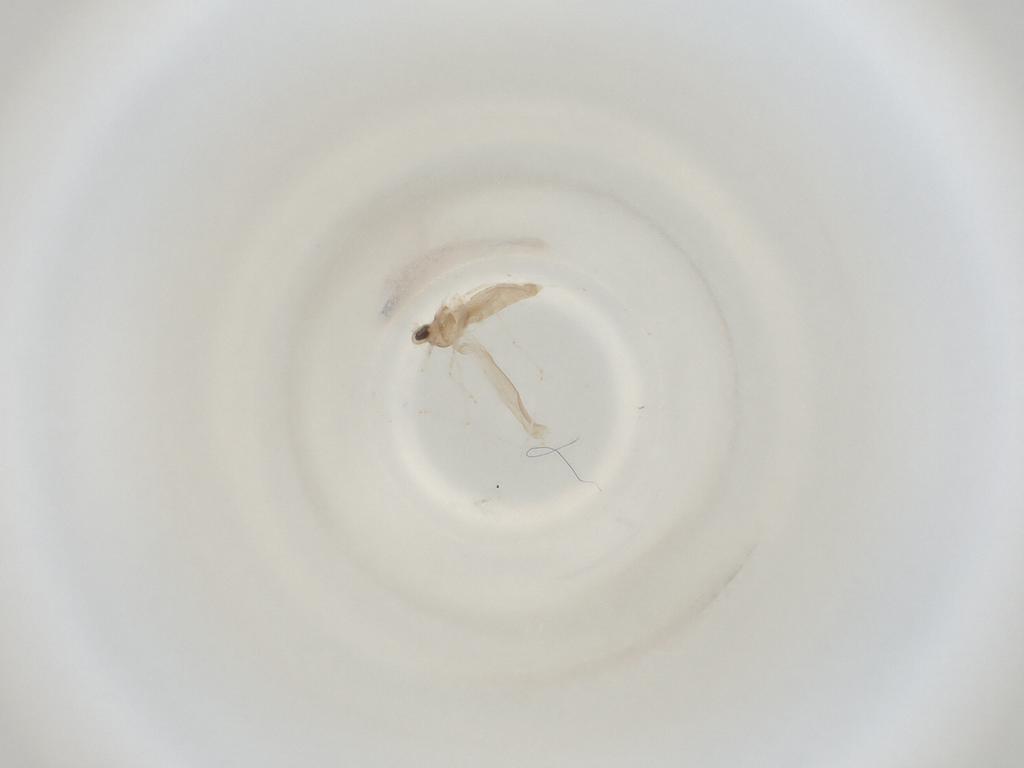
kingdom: Animalia
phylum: Arthropoda
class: Insecta
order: Diptera
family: Cecidomyiidae
